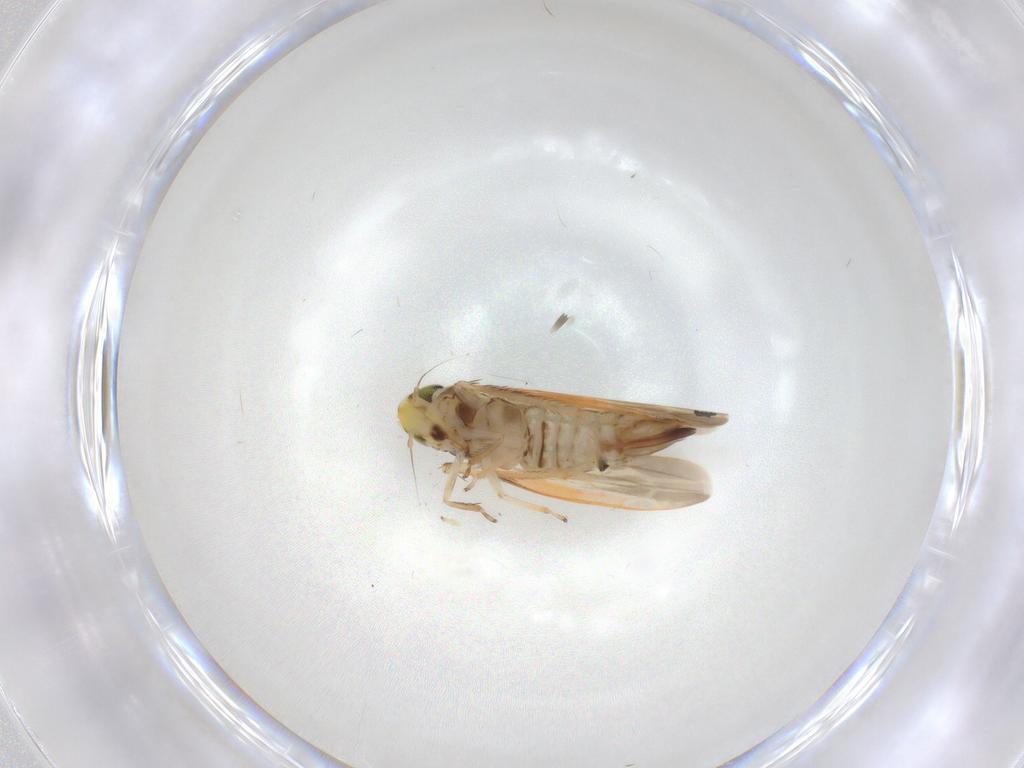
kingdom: Animalia
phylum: Arthropoda
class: Insecta
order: Hemiptera
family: Cicadellidae
